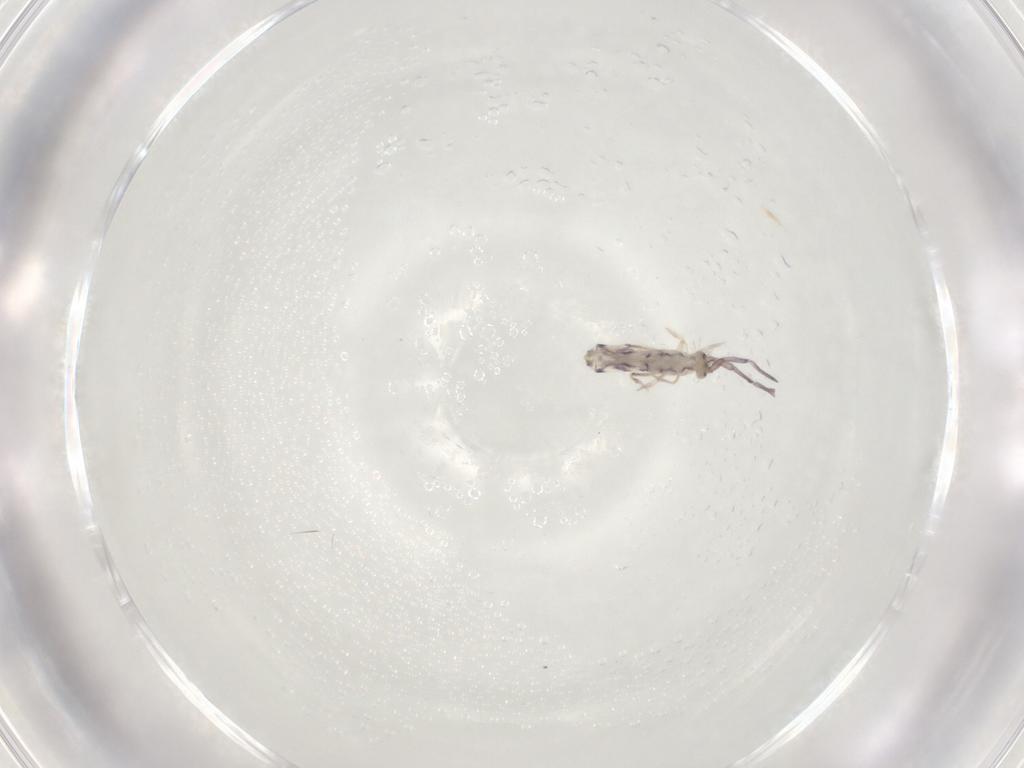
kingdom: Animalia
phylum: Arthropoda
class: Collembola
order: Entomobryomorpha
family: Entomobryidae
